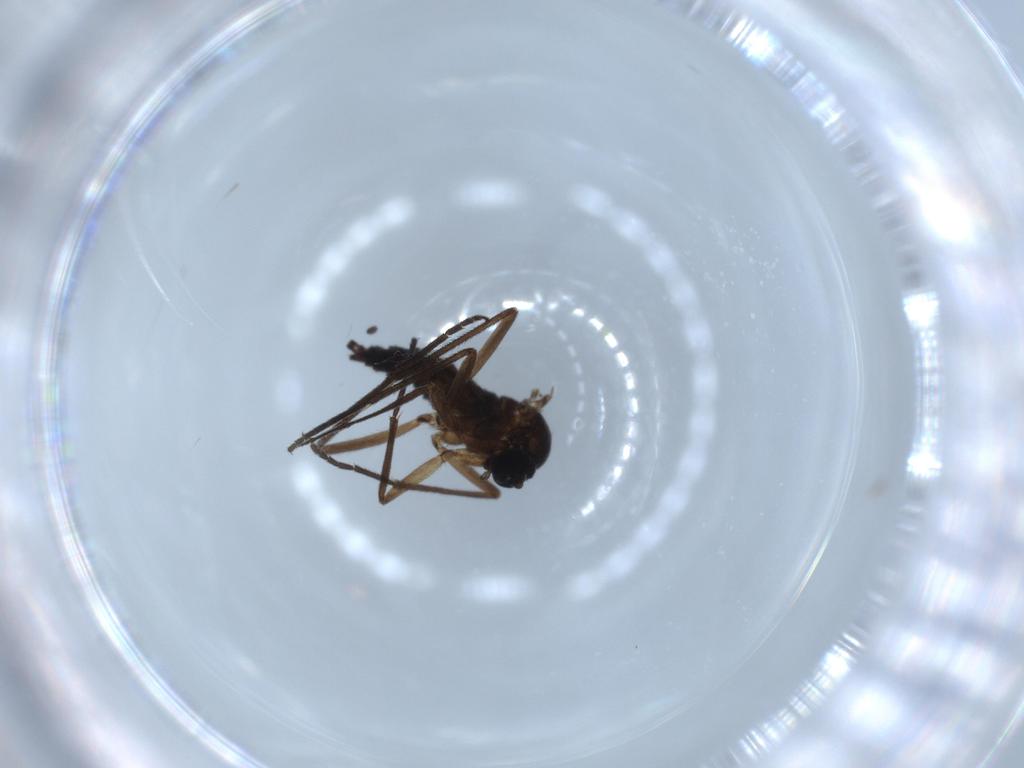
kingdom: Animalia
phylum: Arthropoda
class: Insecta
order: Diptera
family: Sciaridae
